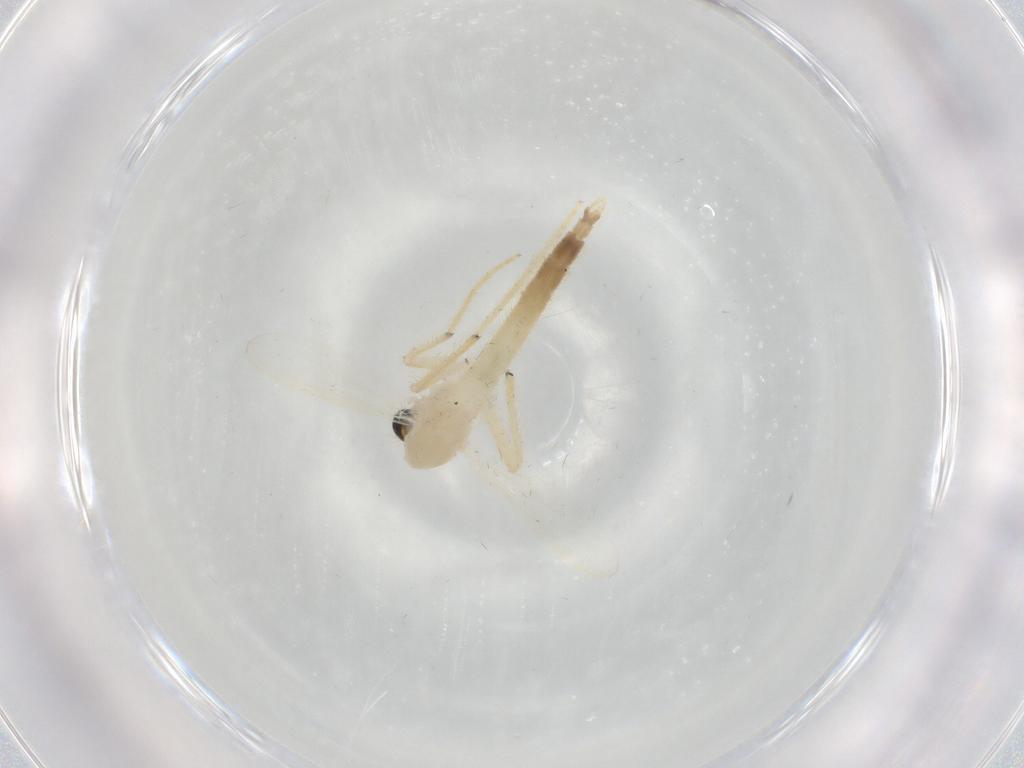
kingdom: Animalia
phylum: Arthropoda
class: Insecta
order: Diptera
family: Chironomidae
